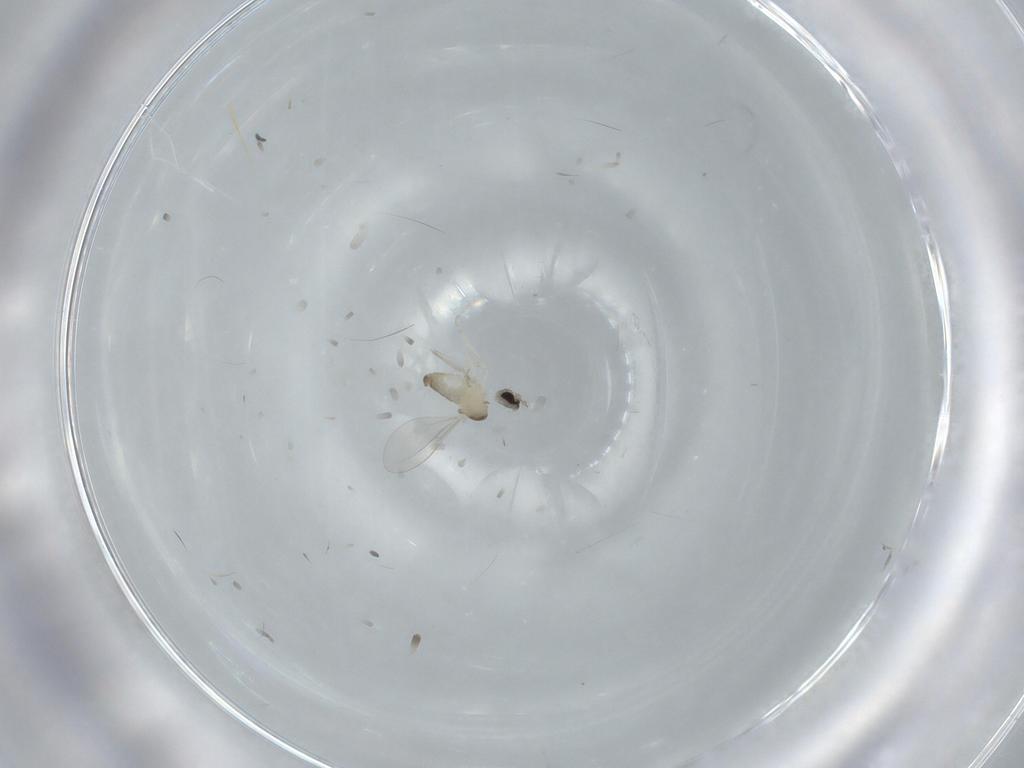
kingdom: Animalia
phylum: Arthropoda
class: Insecta
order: Diptera
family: Cecidomyiidae
